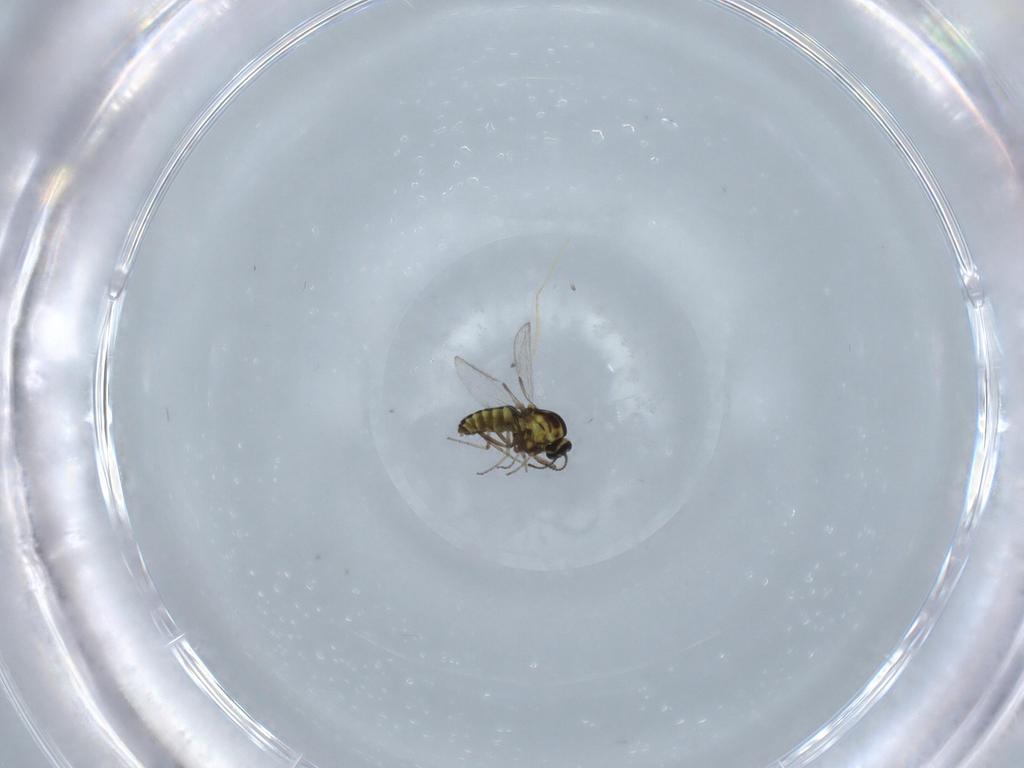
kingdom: Animalia
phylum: Arthropoda
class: Insecta
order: Diptera
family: Ceratopogonidae
